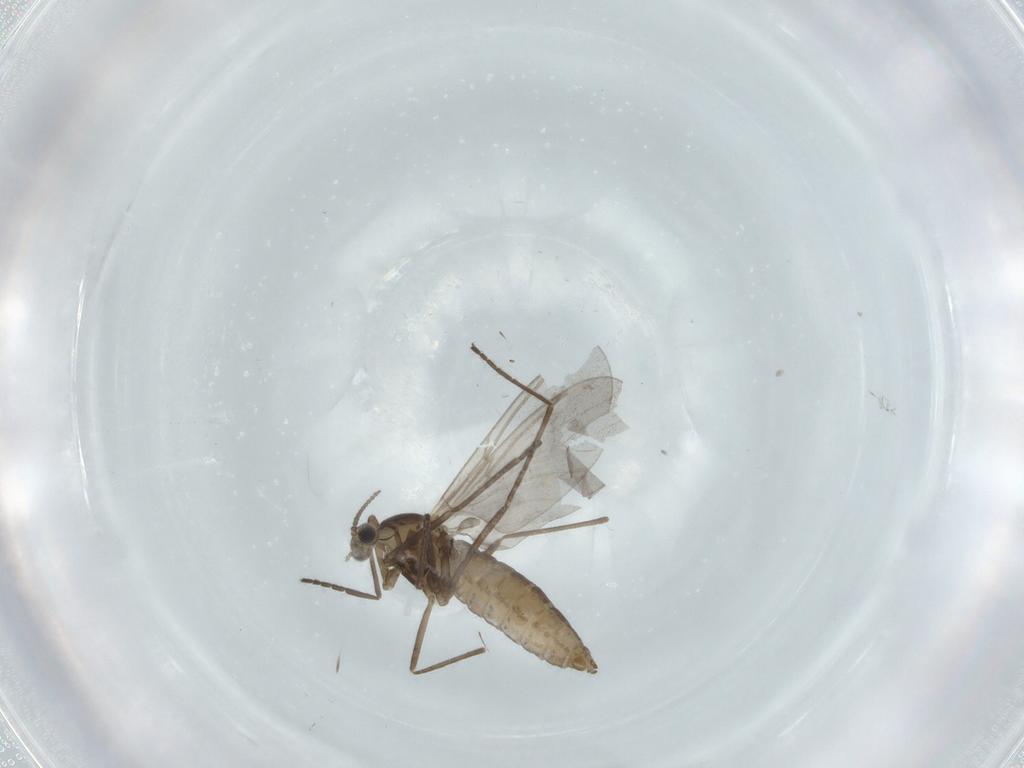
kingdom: Animalia
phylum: Arthropoda
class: Insecta
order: Diptera
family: Cecidomyiidae
